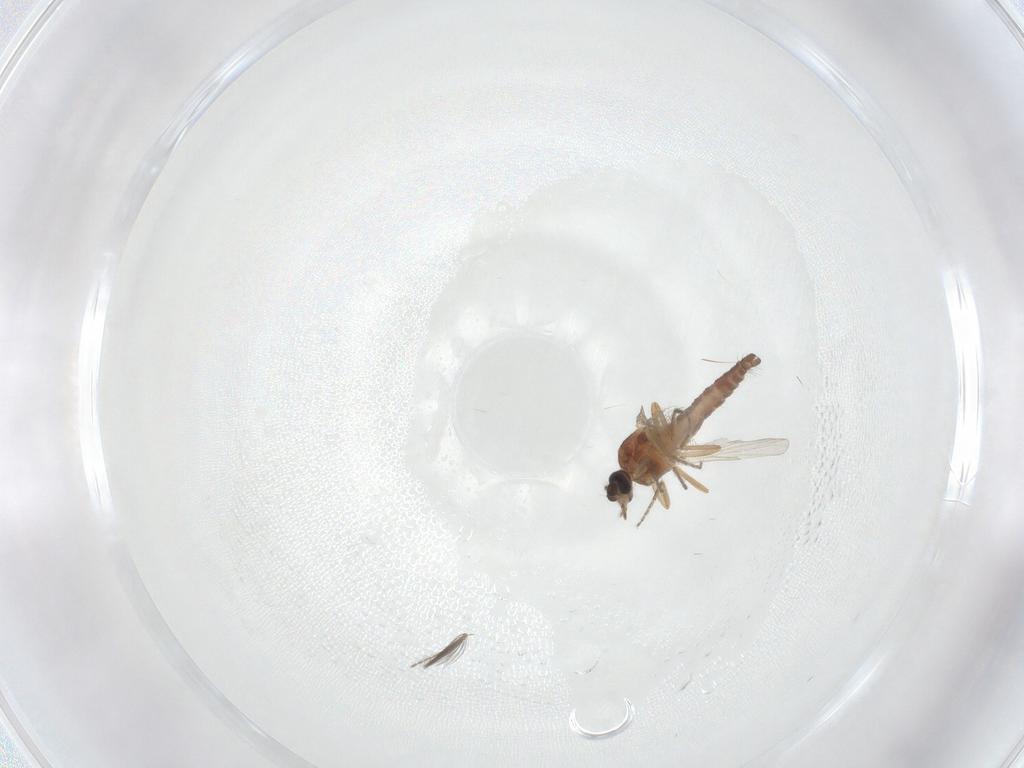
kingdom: Animalia
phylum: Arthropoda
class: Insecta
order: Diptera
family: Ceratopogonidae
